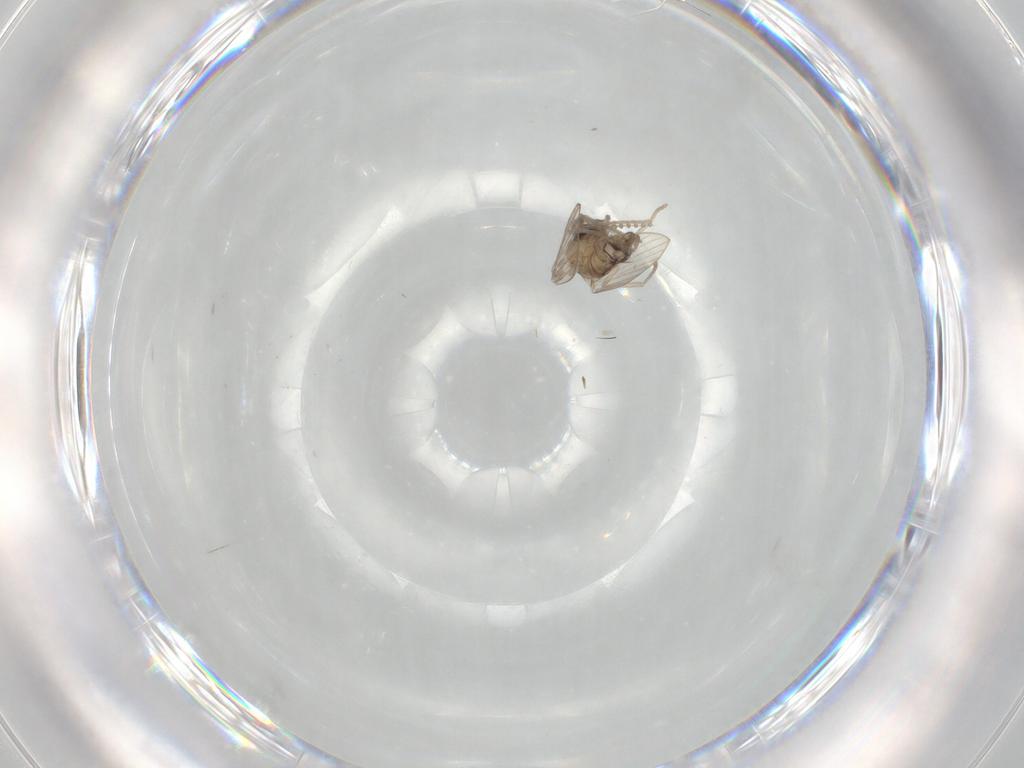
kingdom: Animalia
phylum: Arthropoda
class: Insecta
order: Diptera
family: Psychodidae
